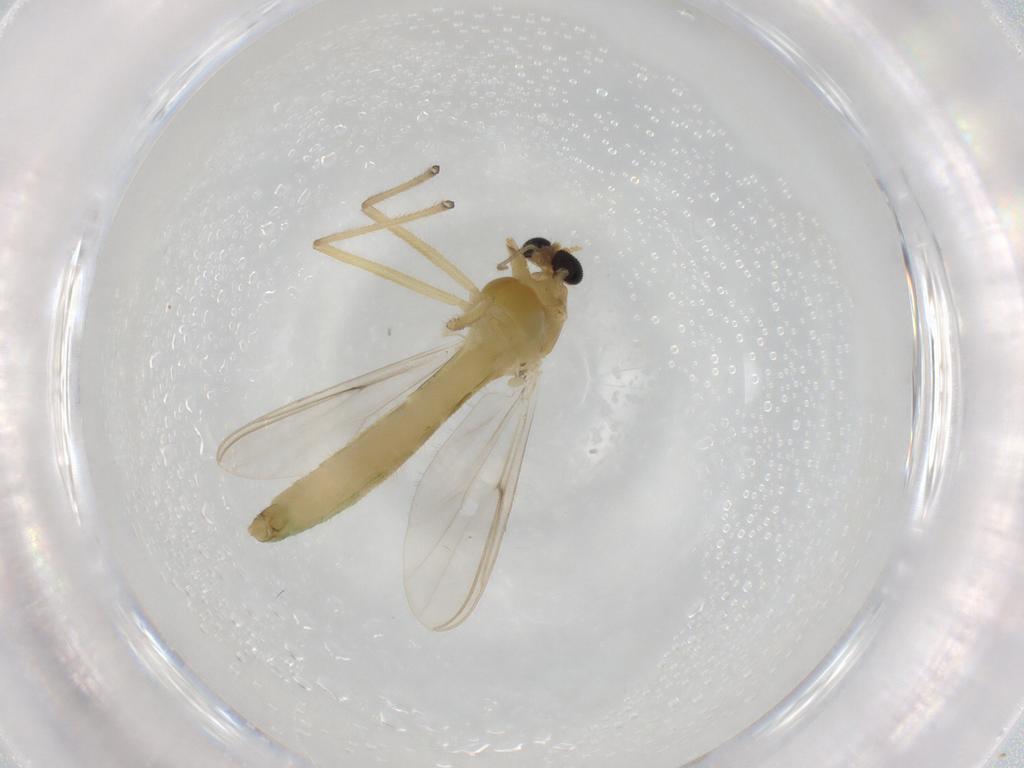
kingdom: Animalia
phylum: Arthropoda
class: Insecta
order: Diptera
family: Chironomidae
